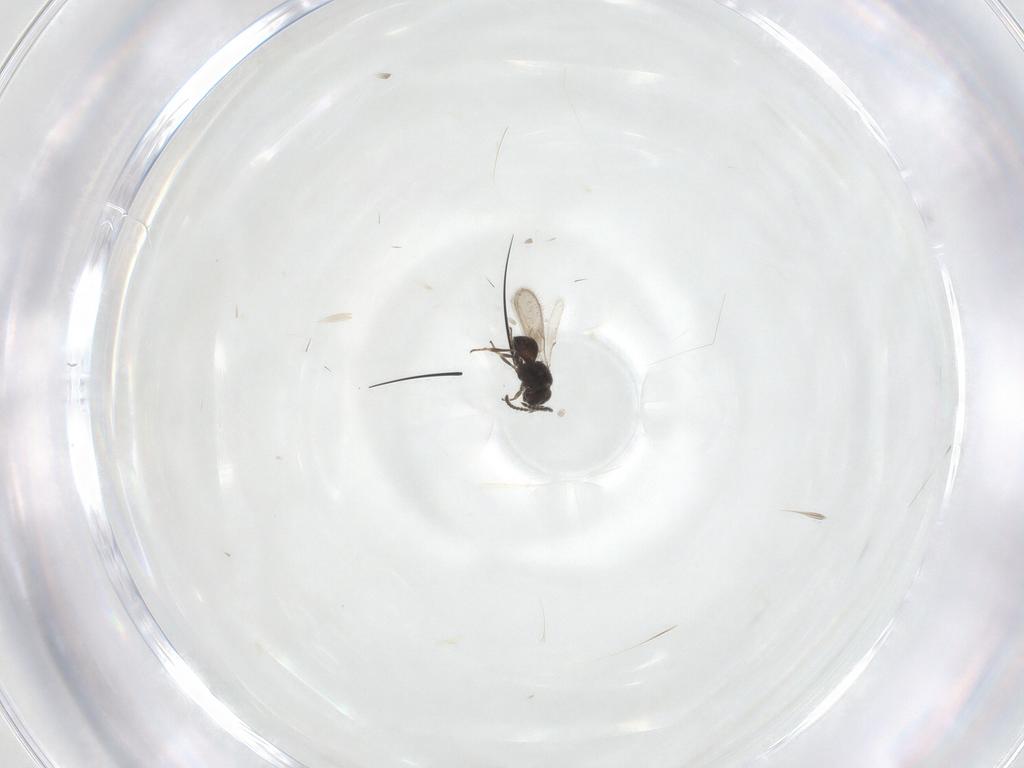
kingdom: Animalia
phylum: Arthropoda
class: Insecta
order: Hymenoptera
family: Scelionidae
